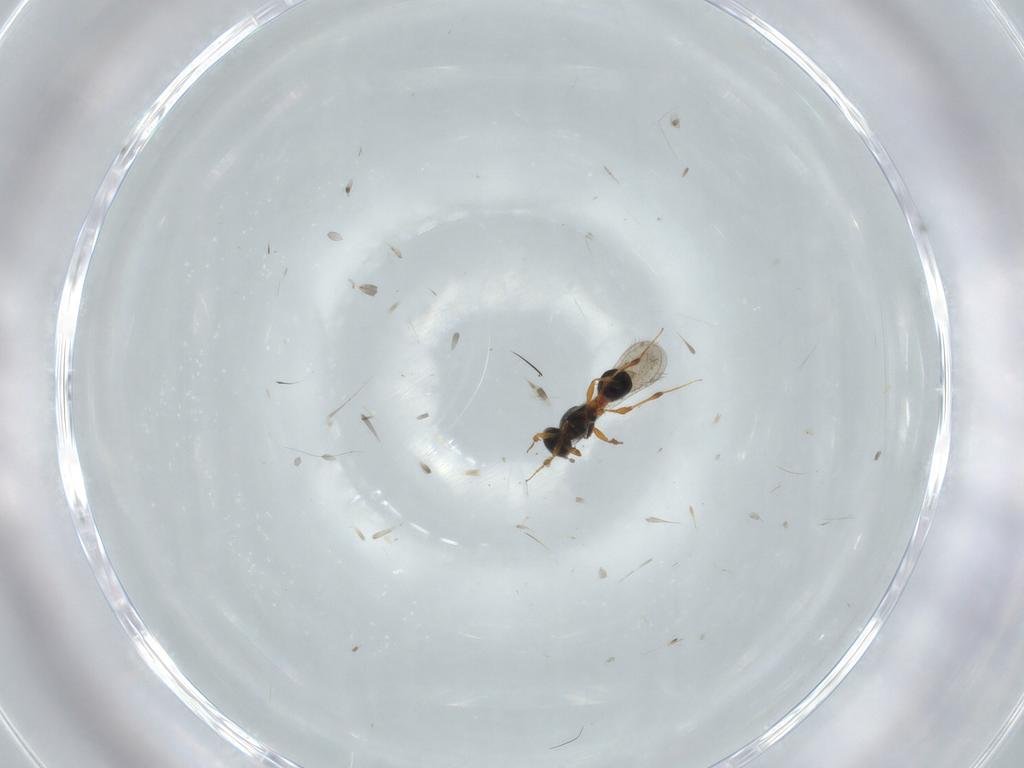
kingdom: Animalia
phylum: Arthropoda
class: Insecta
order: Hymenoptera
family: Platygastridae
